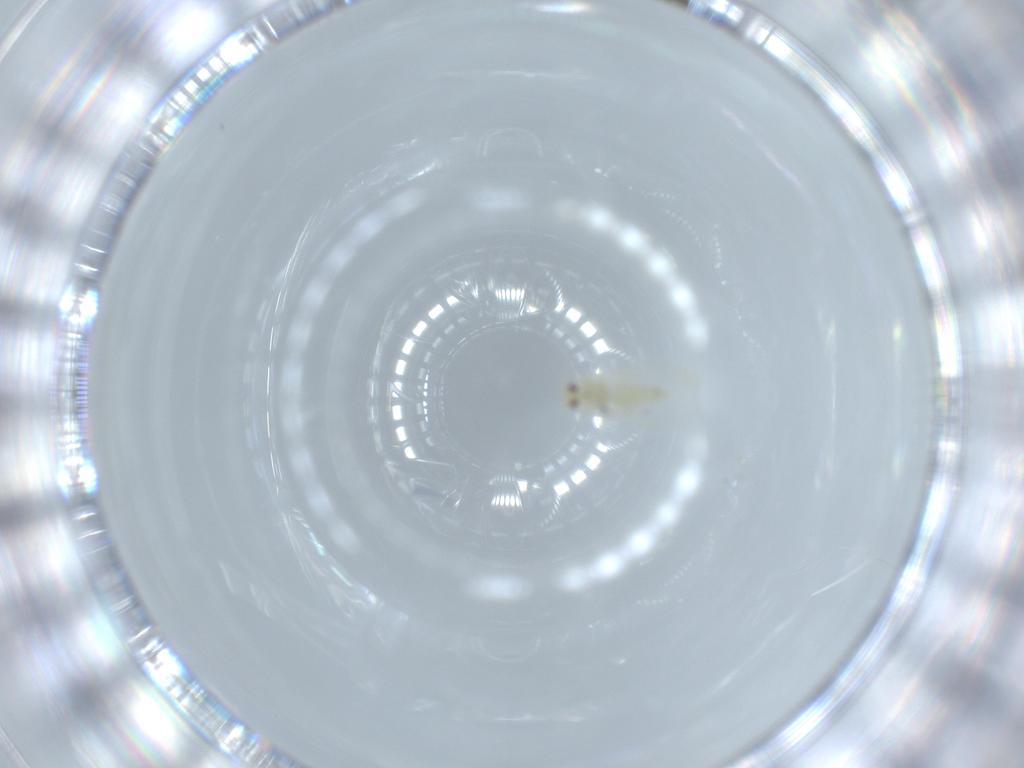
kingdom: Animalia
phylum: Arthropoda
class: Insecta
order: Hemiptera
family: Aleyrodidae
